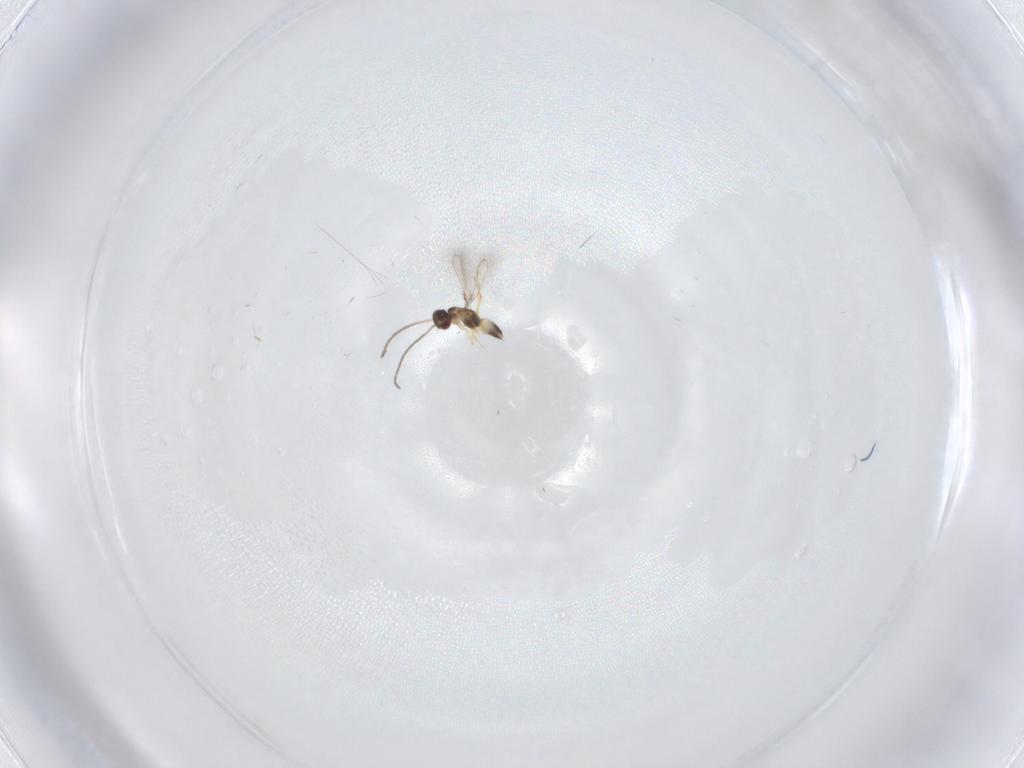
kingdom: Animalia
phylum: Arthropoda
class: Insecta
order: Hymenoptera
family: Mymaridae
